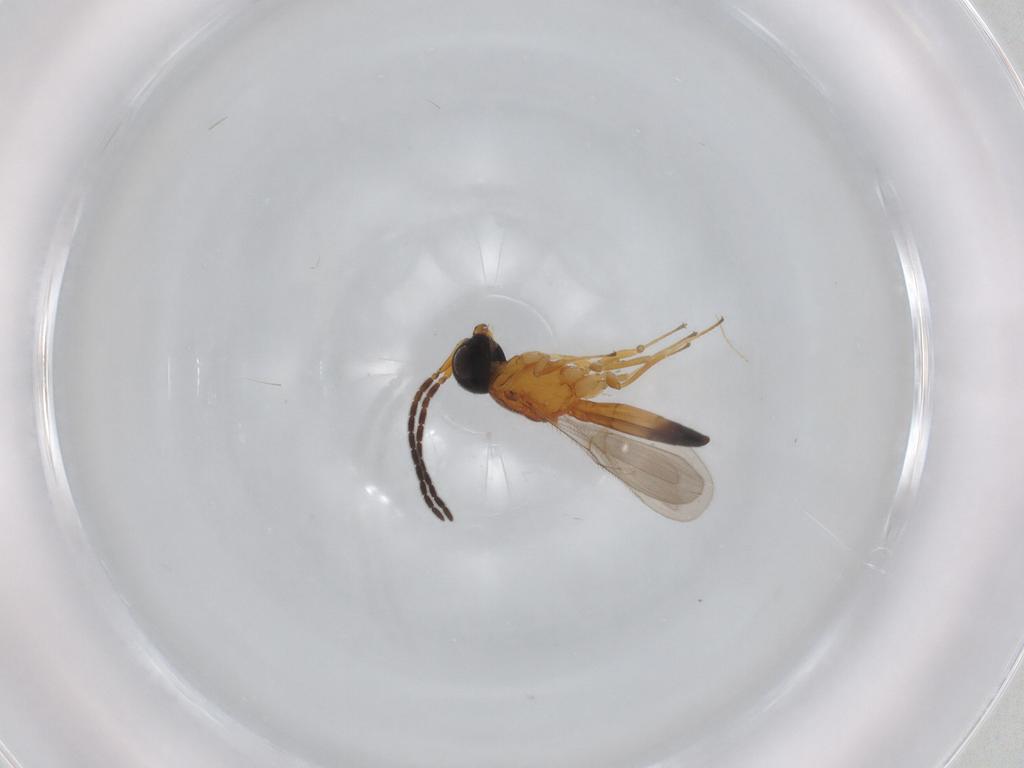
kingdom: Animalia
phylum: Arthropoda
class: Insecta
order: Hymenoptera
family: Scelionidae
